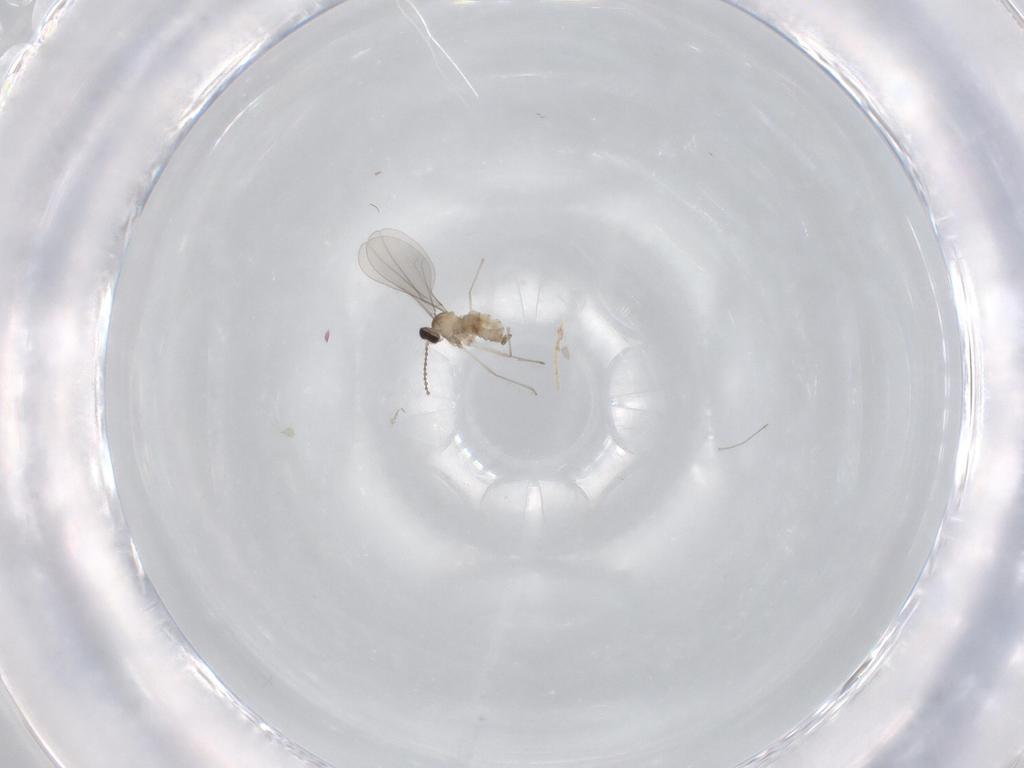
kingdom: Animalia
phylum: Arthropoda
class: Insecta
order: Diptera
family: Cecidomyiidae
